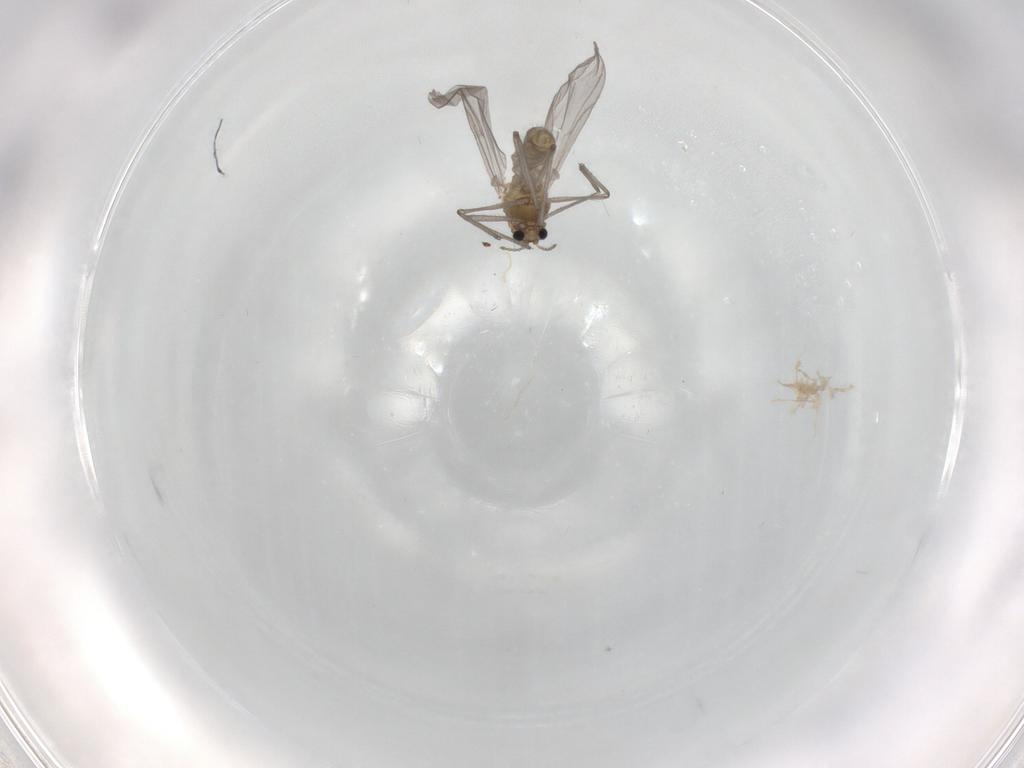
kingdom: Animalia
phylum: Arthropoda
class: Insecta
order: Diptera
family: Chironomidae
